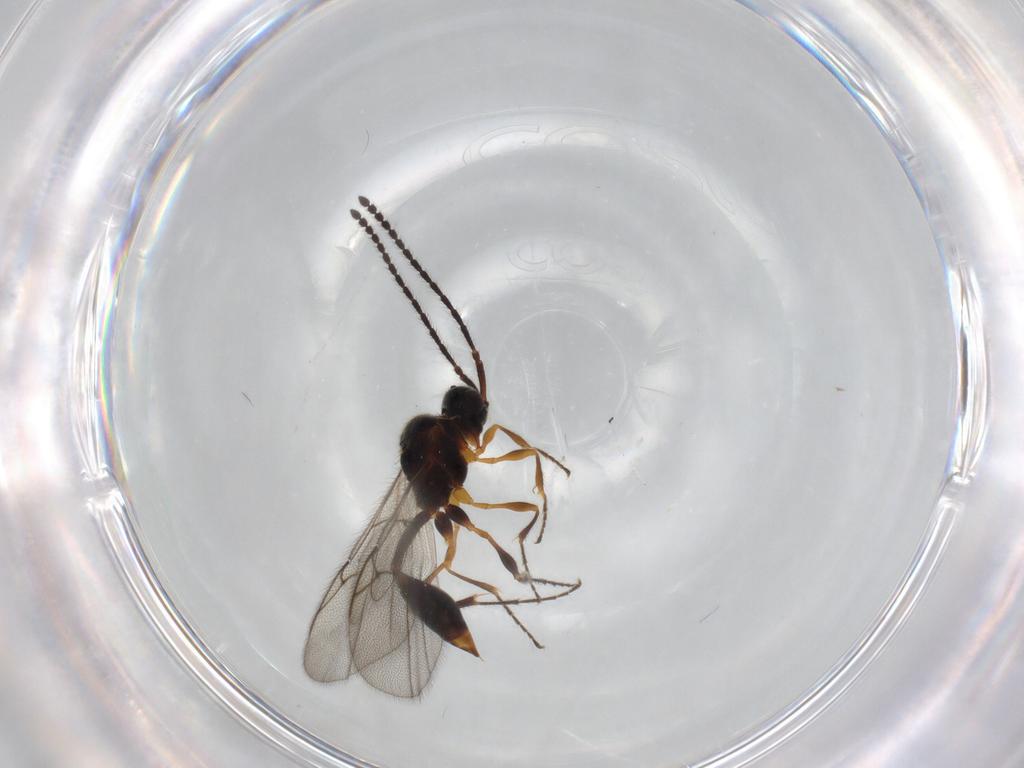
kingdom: Animalia
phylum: Arthropoda
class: Insecta
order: Hymenoptera
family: Diapriidae
